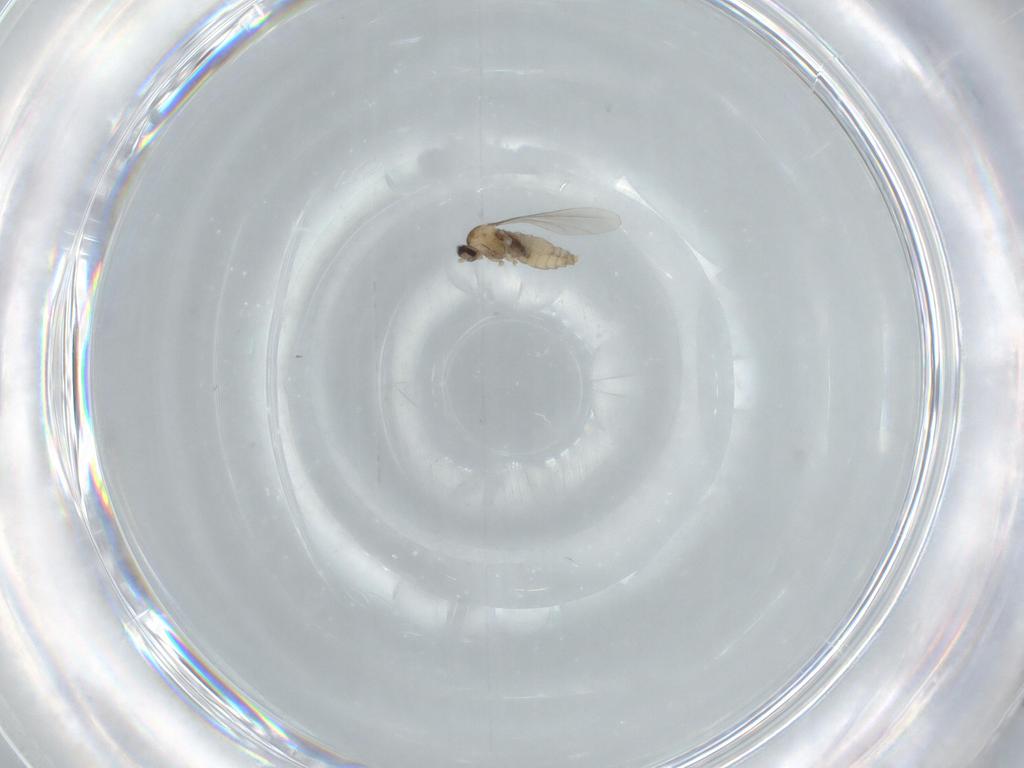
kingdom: Animalia
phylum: Arthropoda
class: Insecta
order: Diptera
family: Cecidomyiidae
